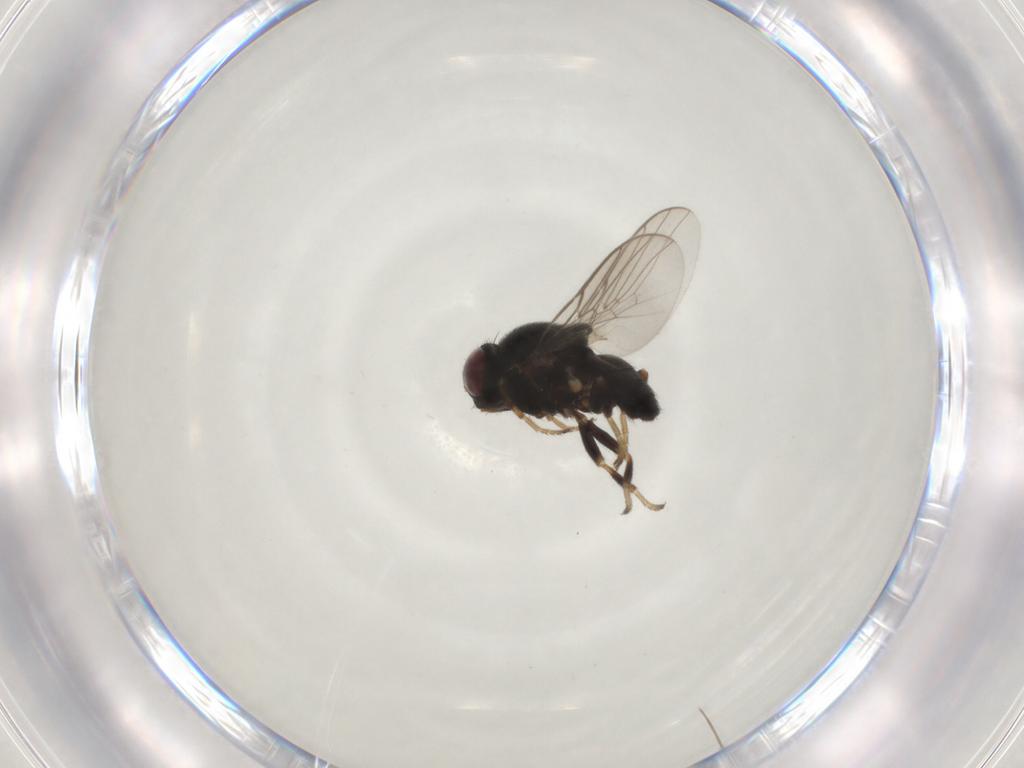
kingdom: Animalia
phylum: Arthropoda
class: Insecta
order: Diptera
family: Chloropidae
